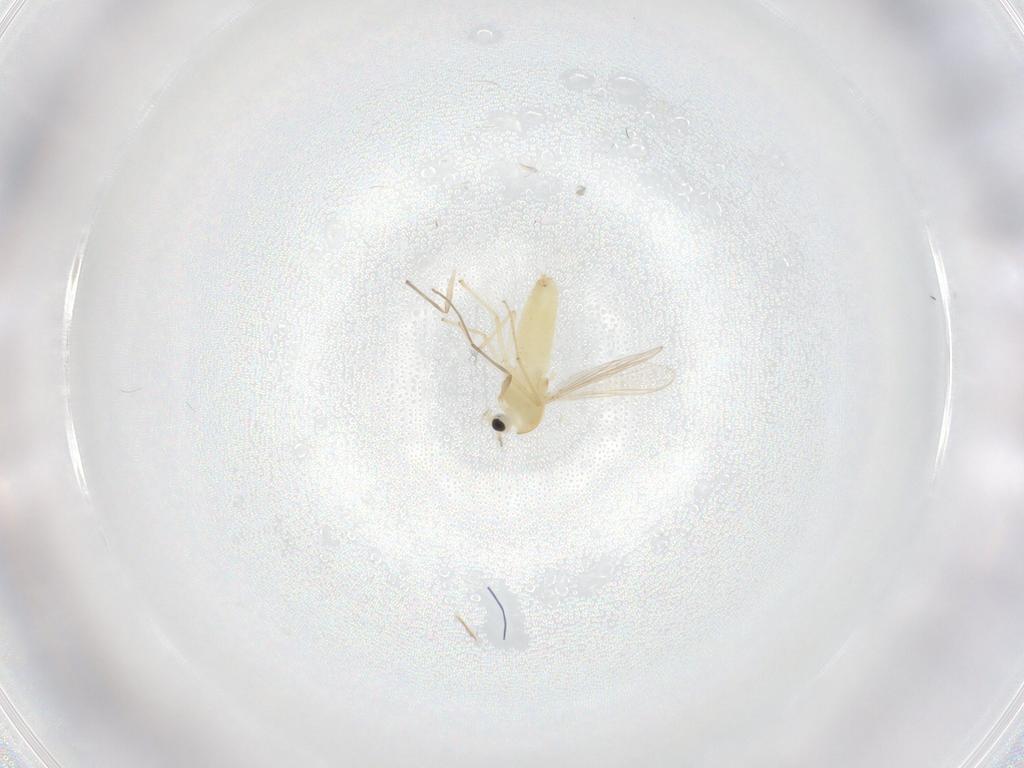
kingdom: Animalia
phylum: Arthropoda
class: Insecta
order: Diptera
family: Chironomidae
